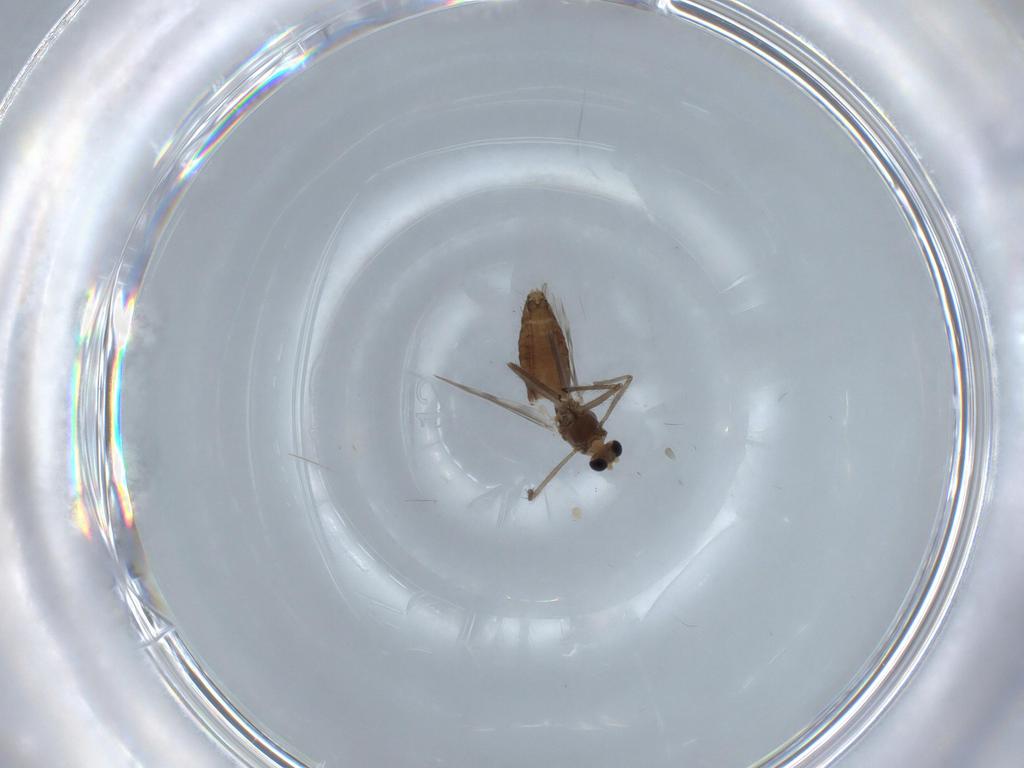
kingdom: Animalia
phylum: Arthropoda
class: Insecta
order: Diptera
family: Chironomidae
